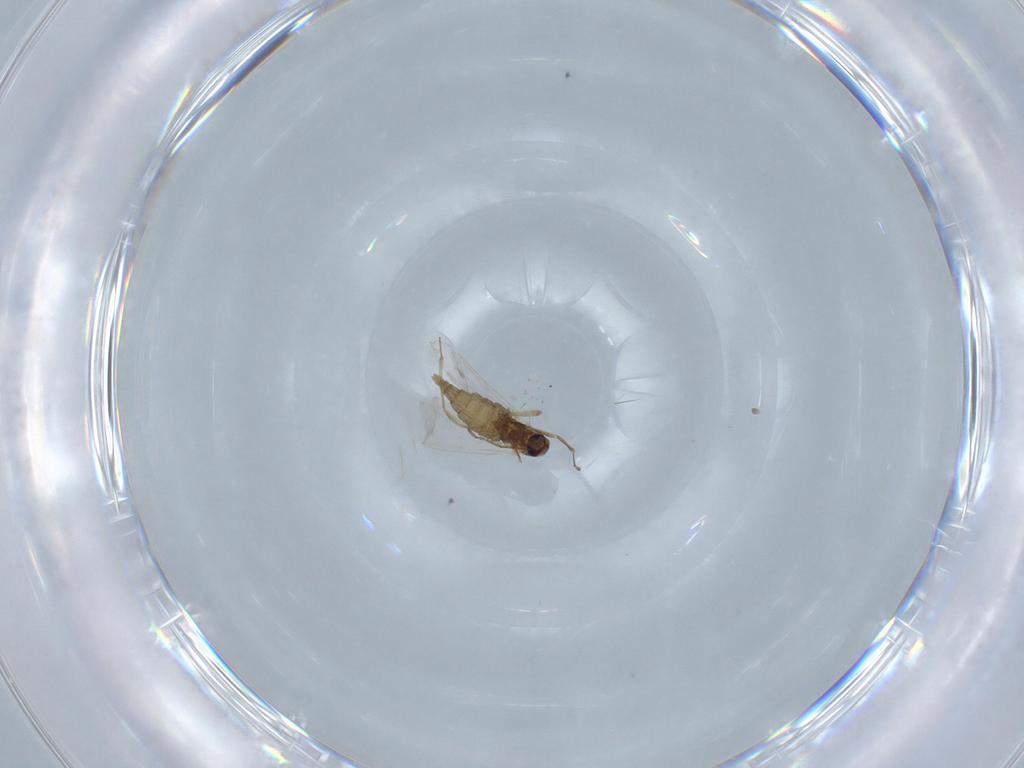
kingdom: Animalia
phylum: Arthropoda
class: Insecta
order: Diptera
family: Cecidomyiidae
